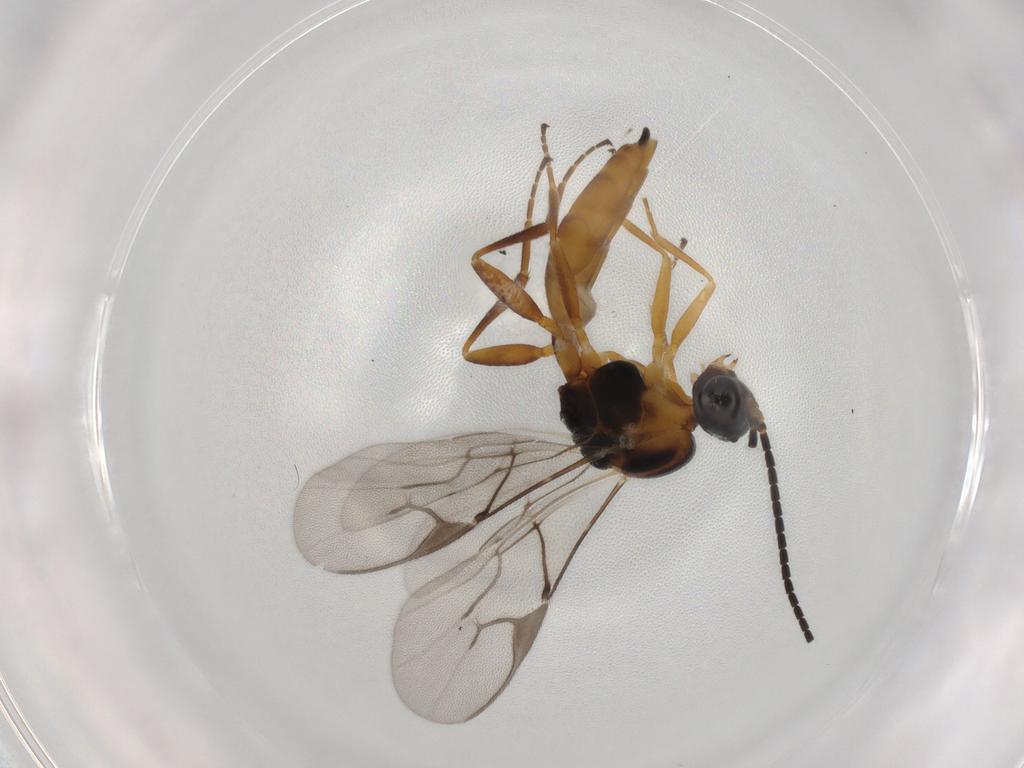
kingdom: Animalia
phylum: Arthropoda
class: Insecta
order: Hymenoptera
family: Braconidae
